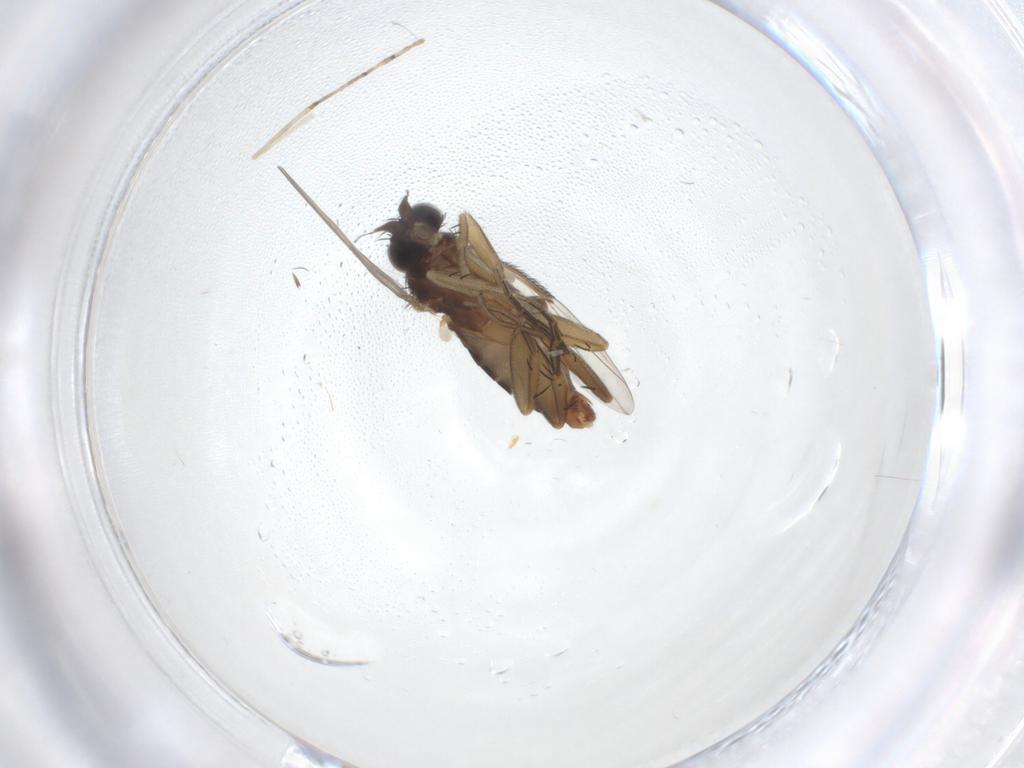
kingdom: Animalia
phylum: Arthropoda
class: Insecta
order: Diptera
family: Cecidomyiidae
